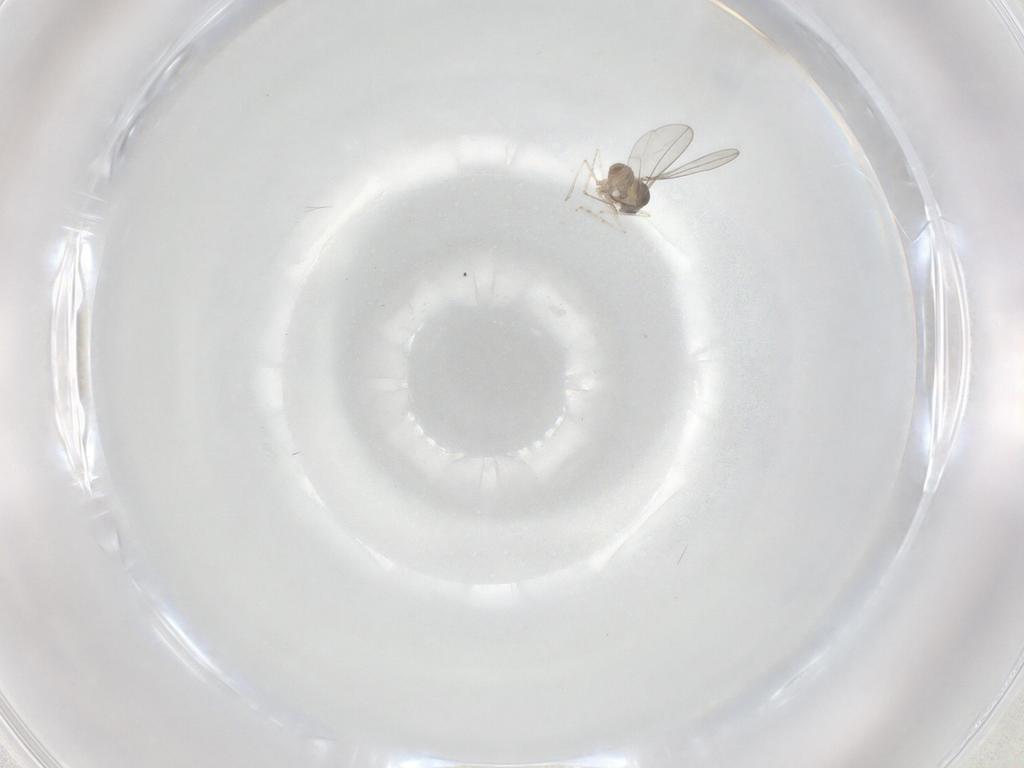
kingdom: Animalia
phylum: Arthropoda
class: Insecta
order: Diptera
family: Cecidomyiidae
